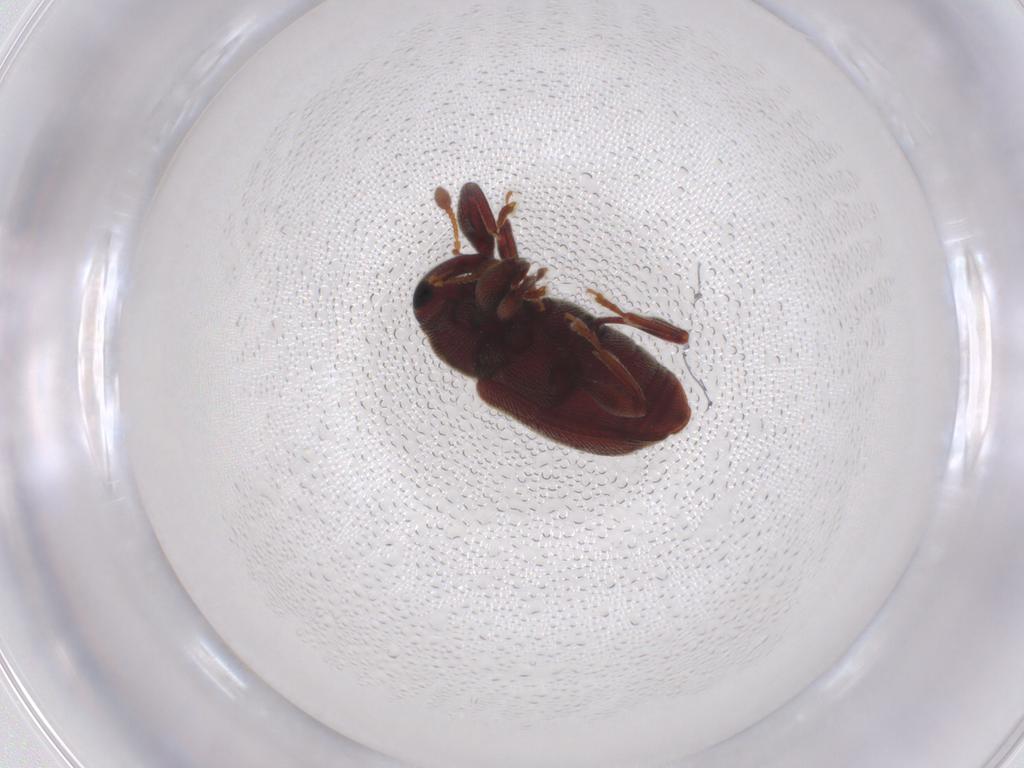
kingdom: Animalia
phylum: Arthropoda
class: Insecta
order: Coleoptera
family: Curculionidae
